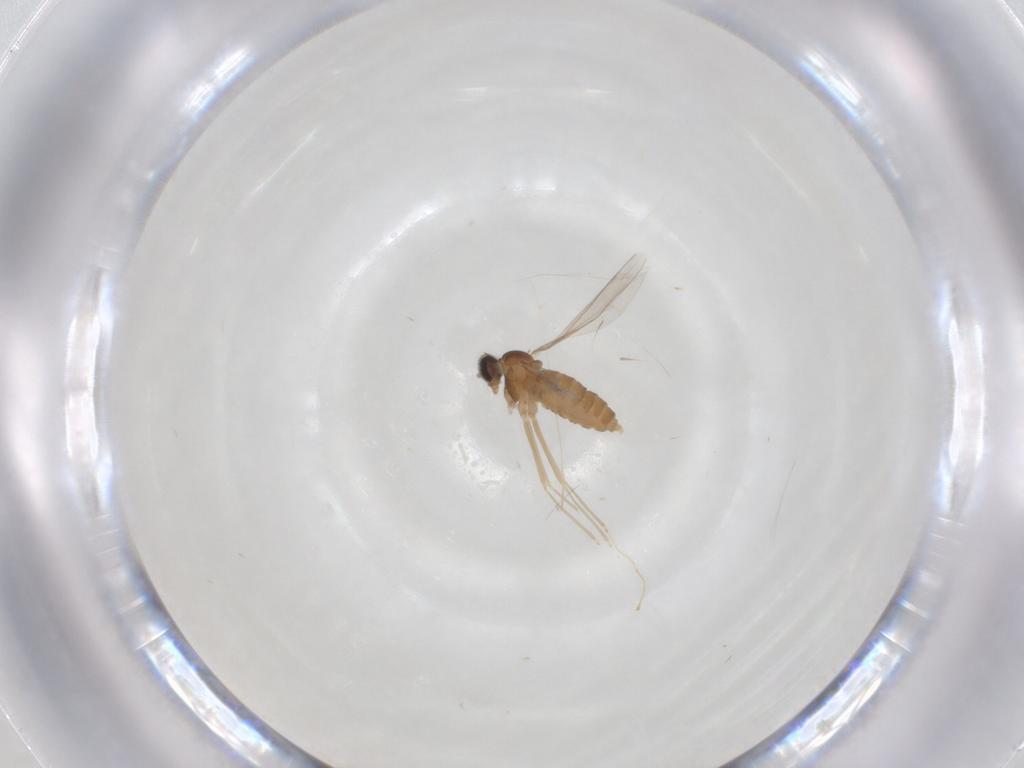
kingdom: Animalia
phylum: Arthropoda
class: Insecta
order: Diptera
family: Cecidomyiidae
